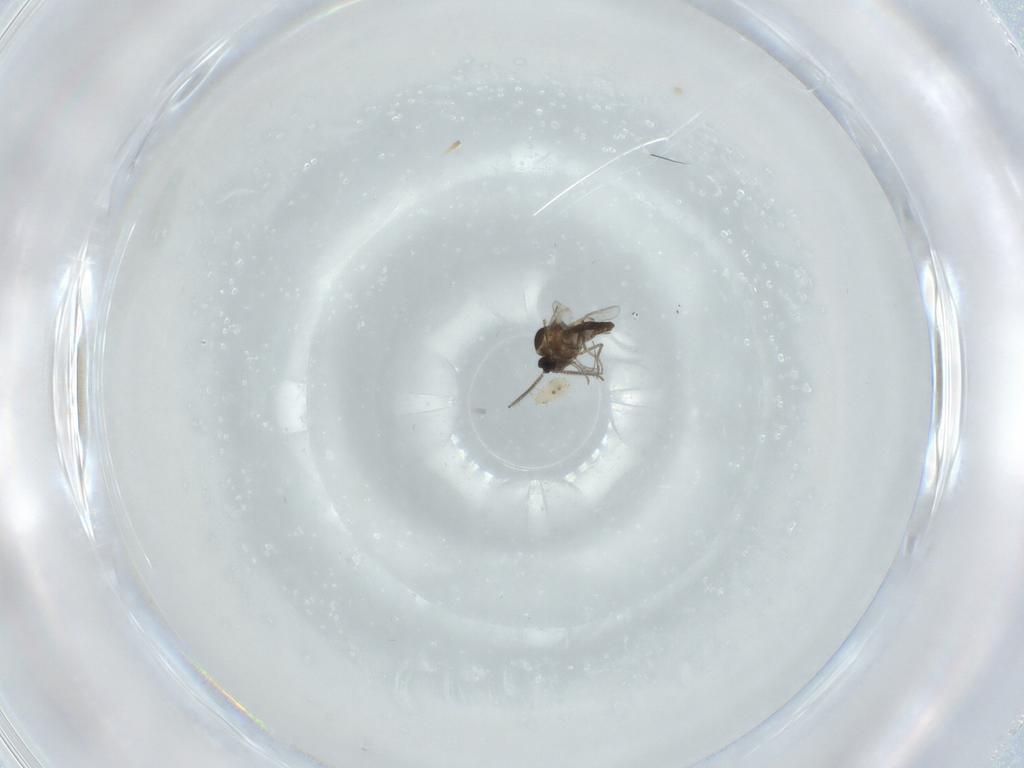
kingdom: Animalia
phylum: Arthropoda
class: Insecta
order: Diptera
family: Ceratopogonidae
